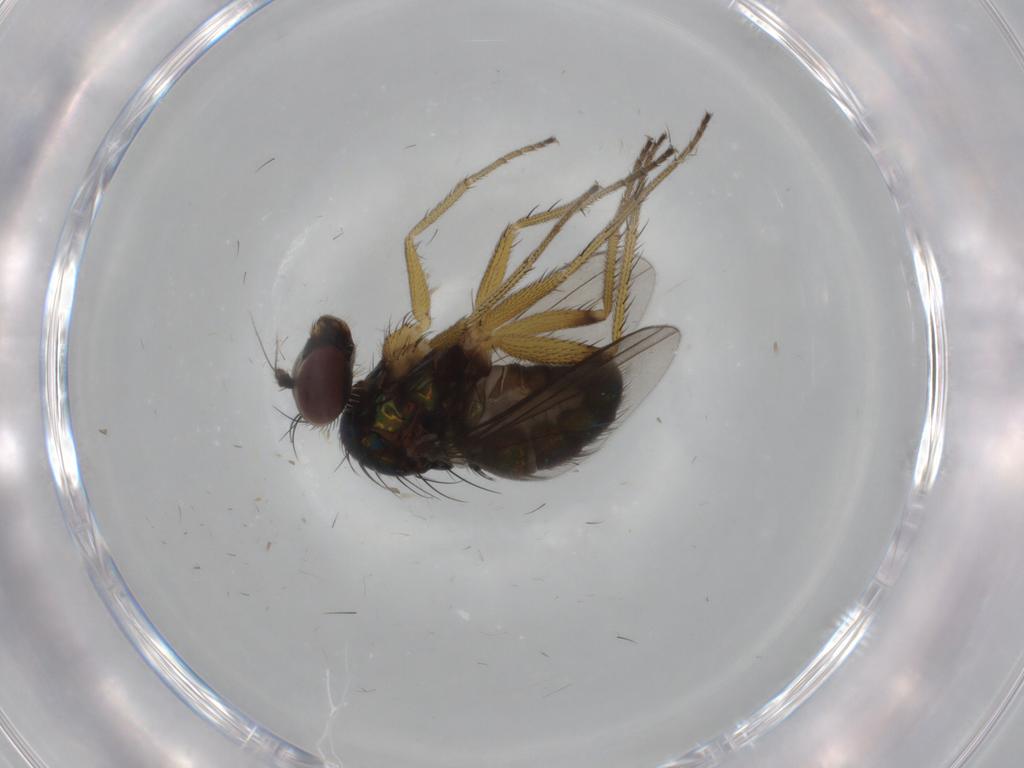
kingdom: Animalia
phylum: Arthropoda
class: Insecta
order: Diptera
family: Dolichopodidae
